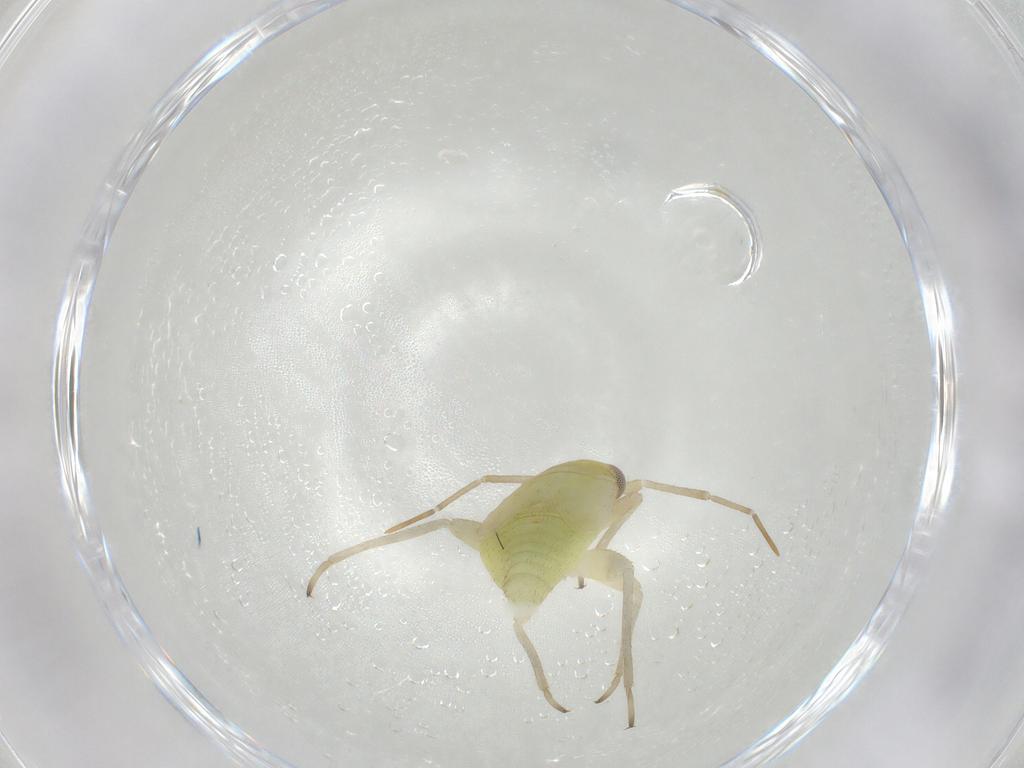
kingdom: Animalia
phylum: Arthropoda
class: Insecta
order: Hemiptera
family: Miridae
